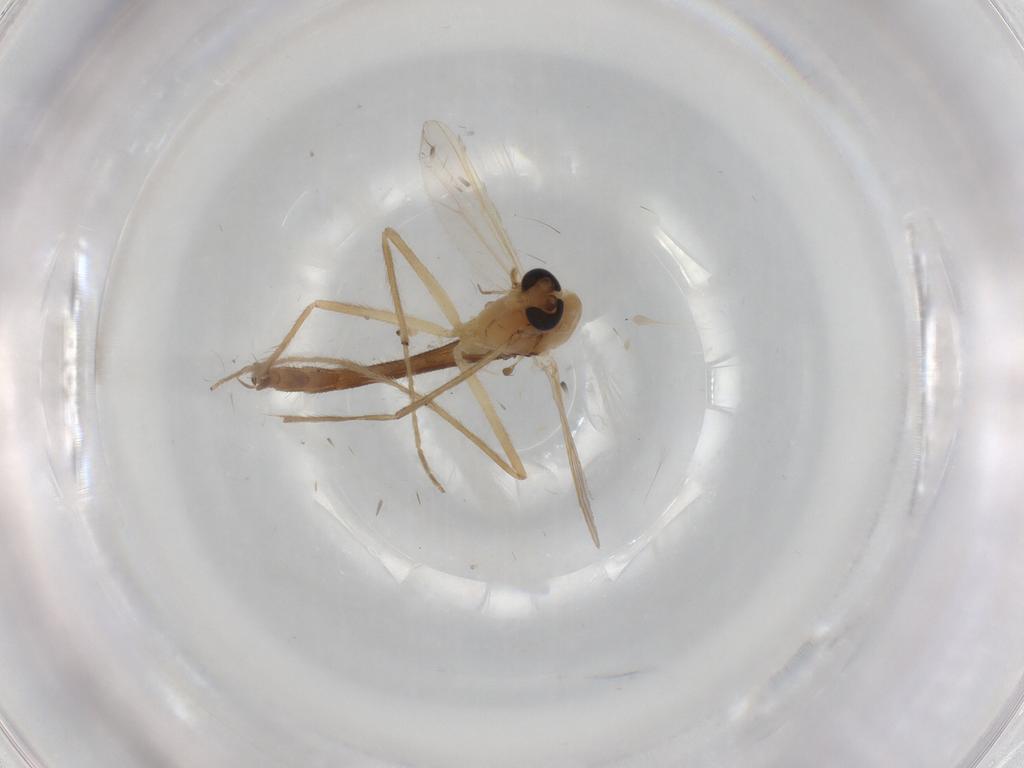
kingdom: Animalia
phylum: Arthropoda
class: Insecta
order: Diptera
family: Chironomidae
